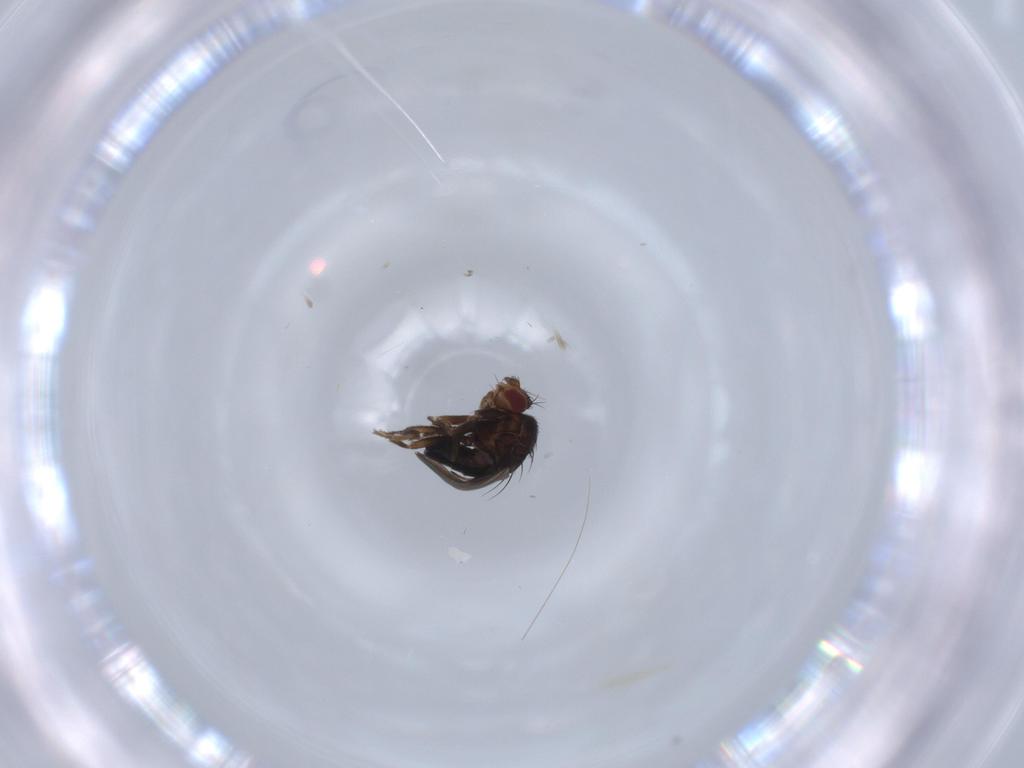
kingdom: Animalia
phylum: Arthropoda
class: Insecta
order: Diptera
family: Sphaeroceridae
